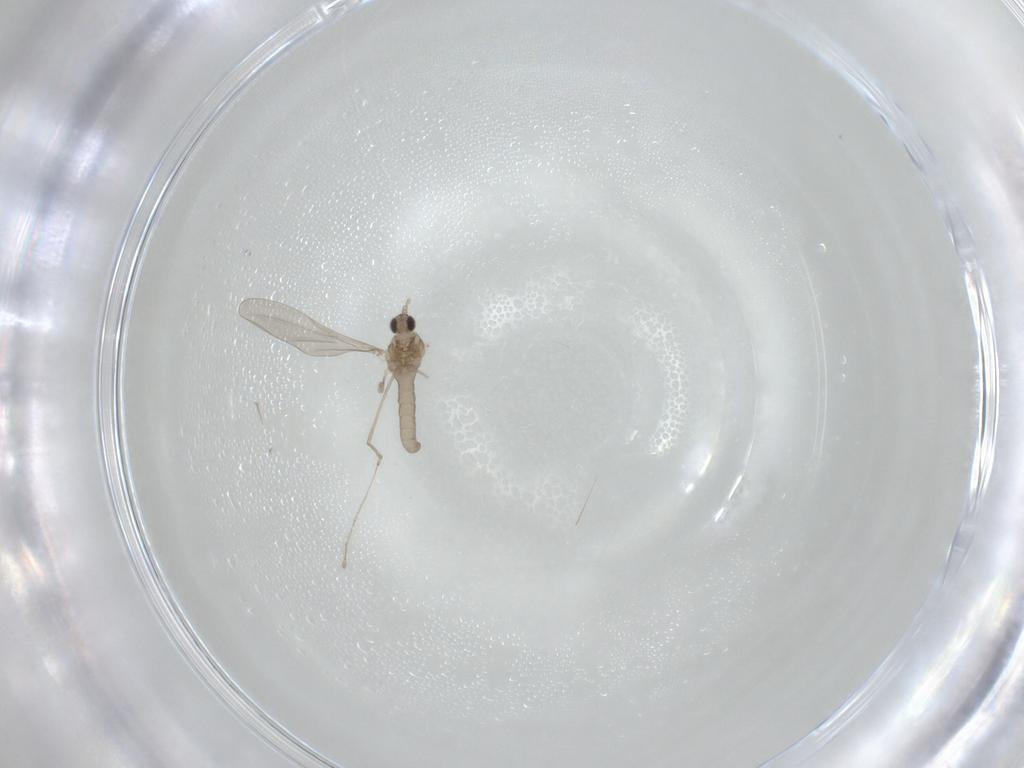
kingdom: Animalia
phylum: Arthropoda
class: Insecta
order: Diptera
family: Cecidomyiidae
